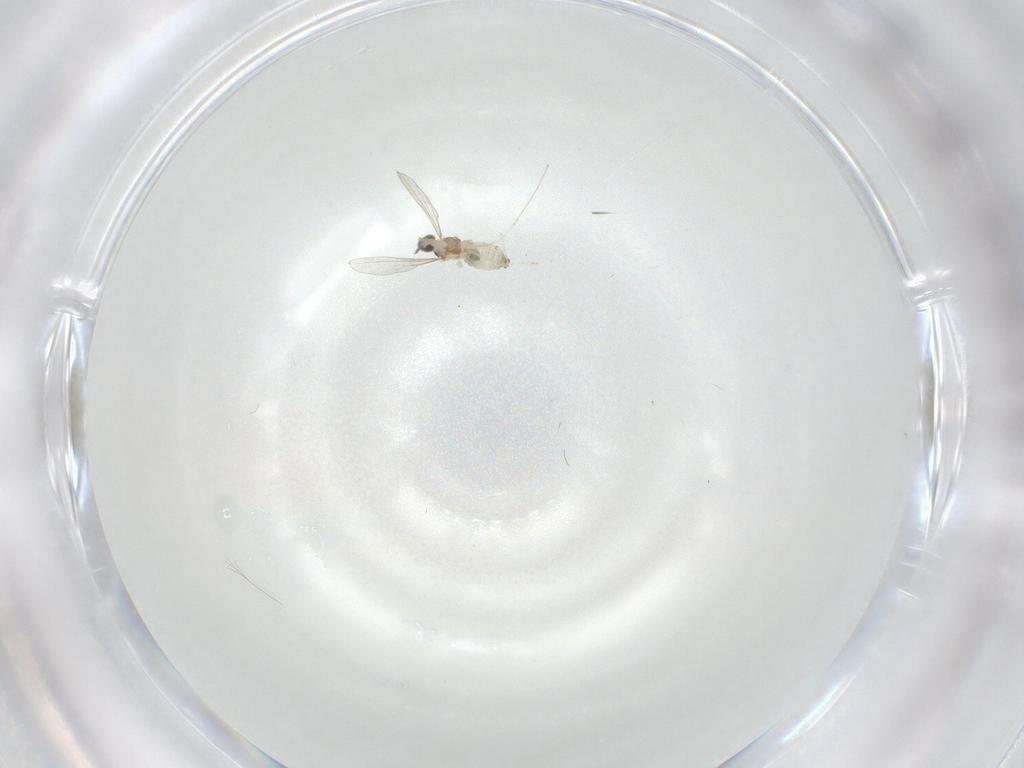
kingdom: Animalia
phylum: Arthropoda
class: Insecta
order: Diptera
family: Cecidomyiidae
